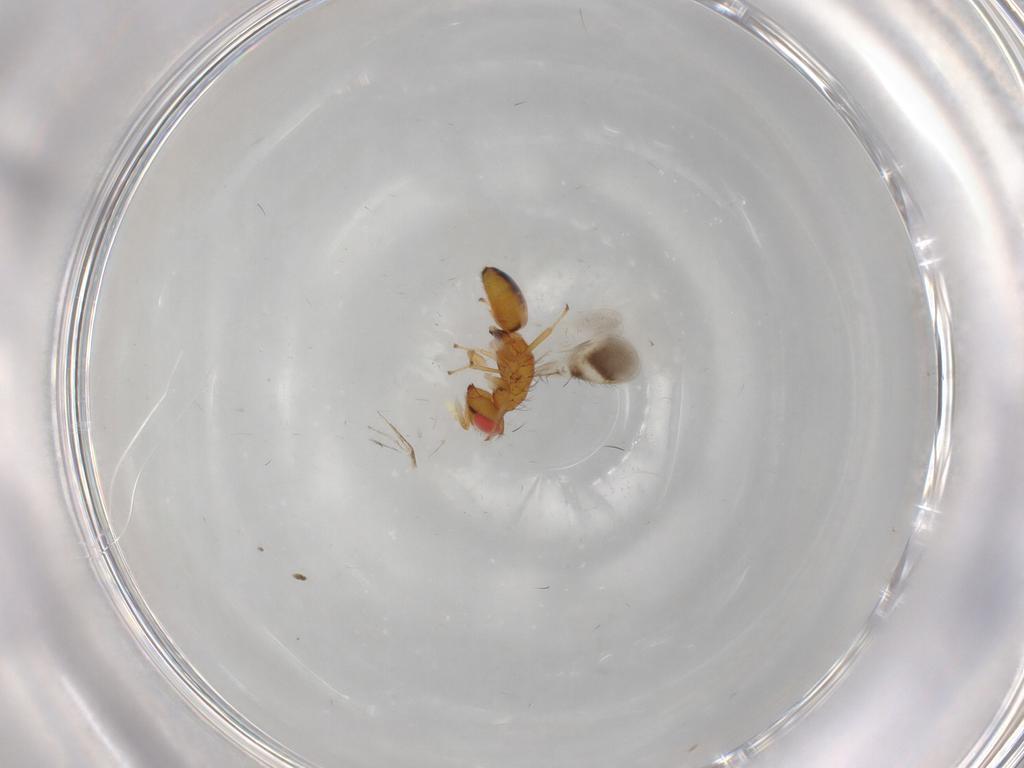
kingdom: Animalia
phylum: Arthropoda
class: Insecta
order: Hymenoptera
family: Eulophidae
